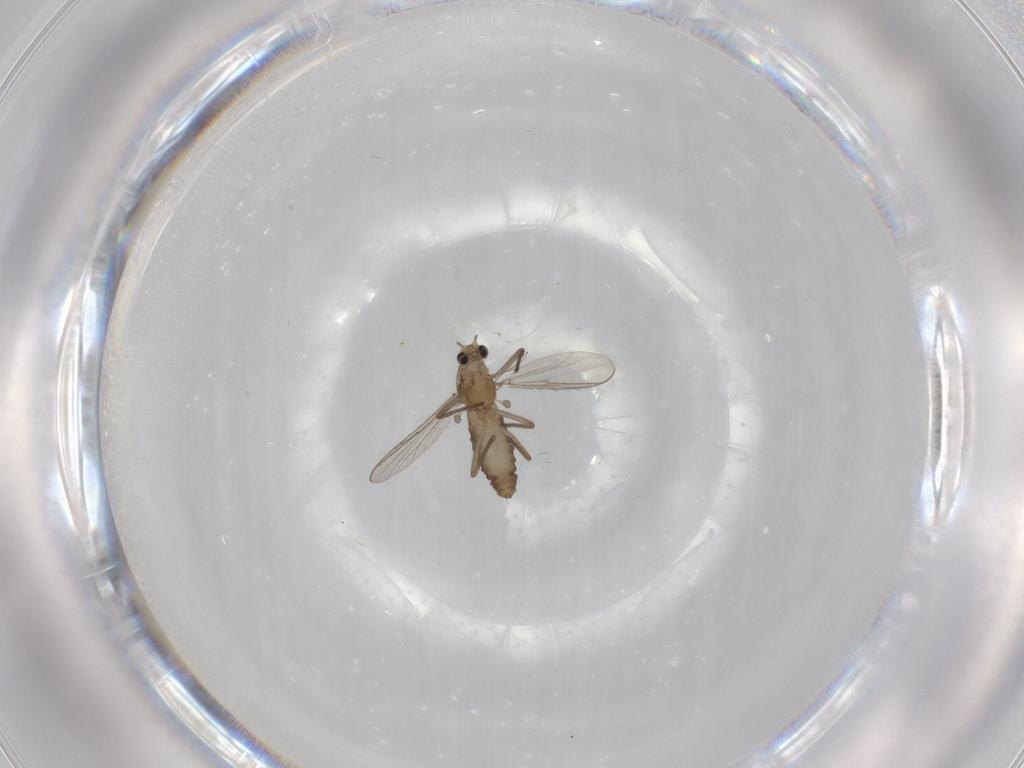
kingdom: Animalia
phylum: Arthropoda
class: Insecta
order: Diptera
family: Chironomidae
